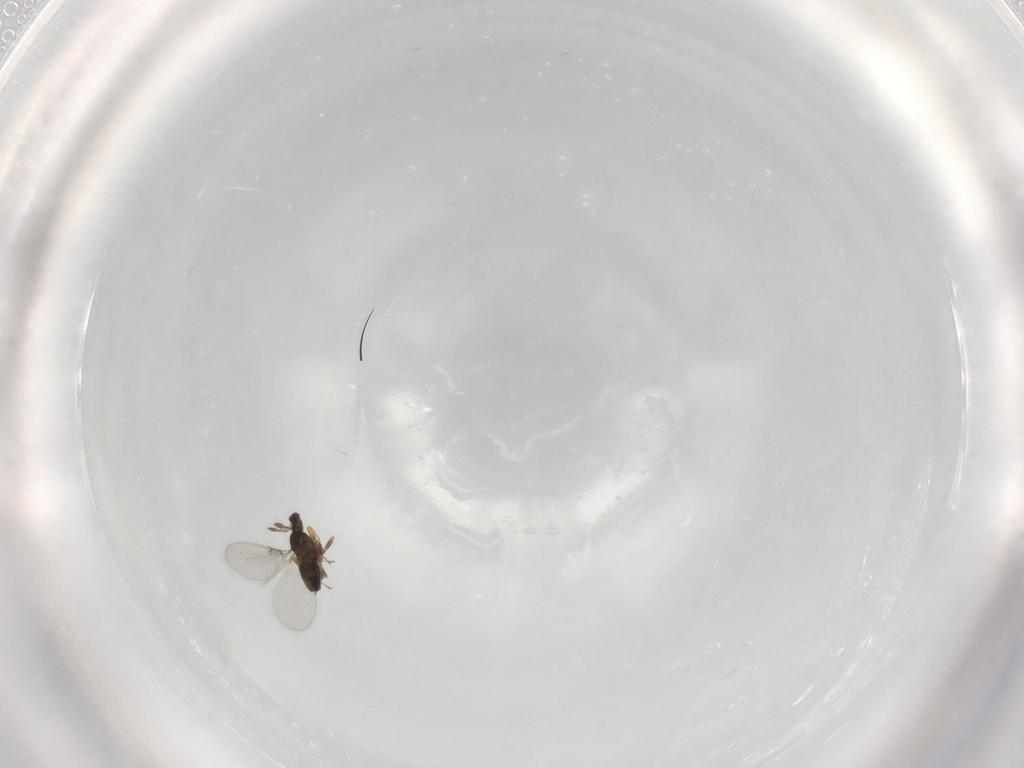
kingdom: Animalia
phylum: Arthropoda
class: Insecta
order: Hymenoptera
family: Trichogrammatidae
